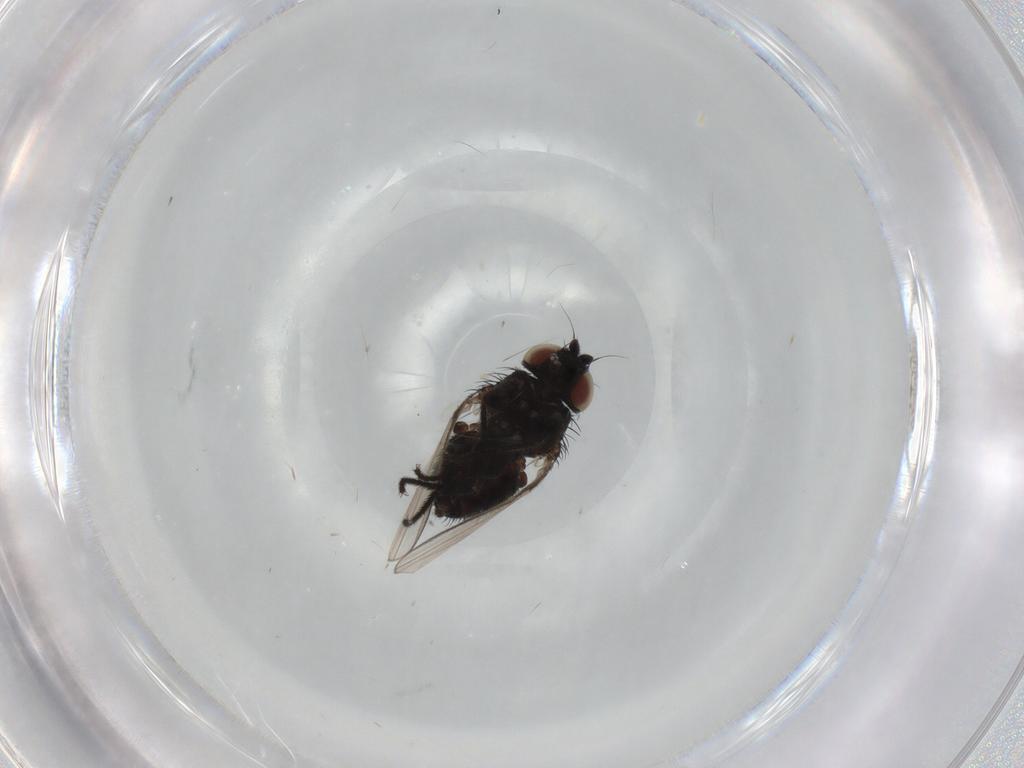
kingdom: Animalia
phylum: Arthropoda
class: Insecta
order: Diptera
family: Milichiidae
